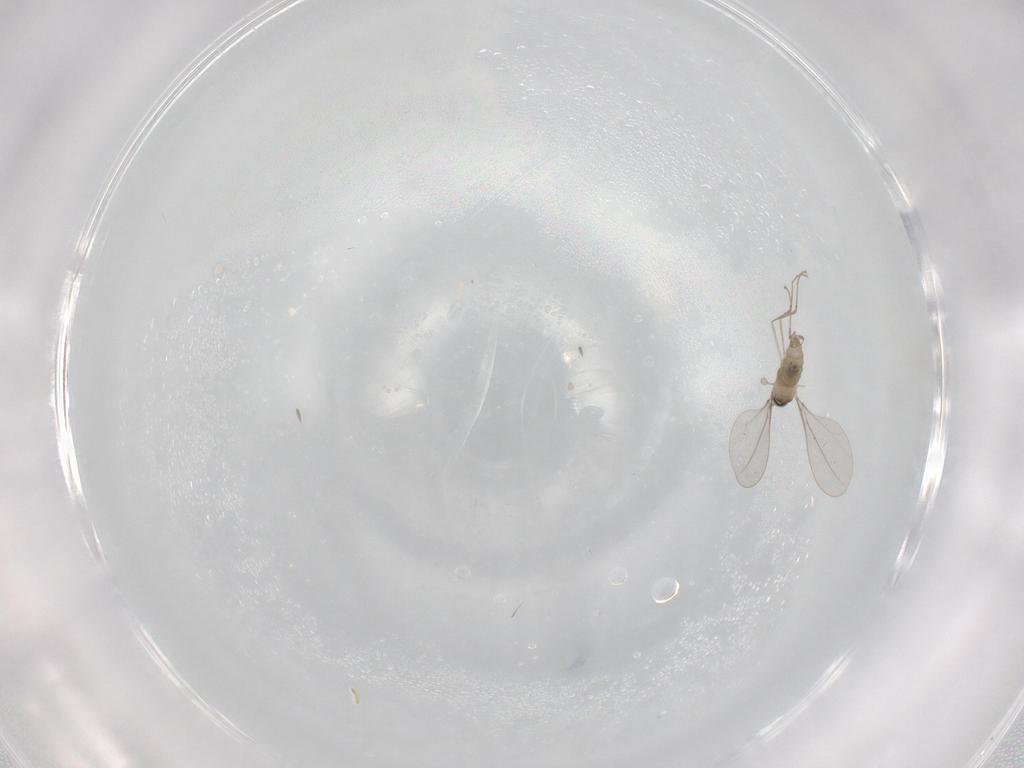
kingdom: Animalia
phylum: Arthropoda
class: Insecta
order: Diptera
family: Cecidomyiidae
